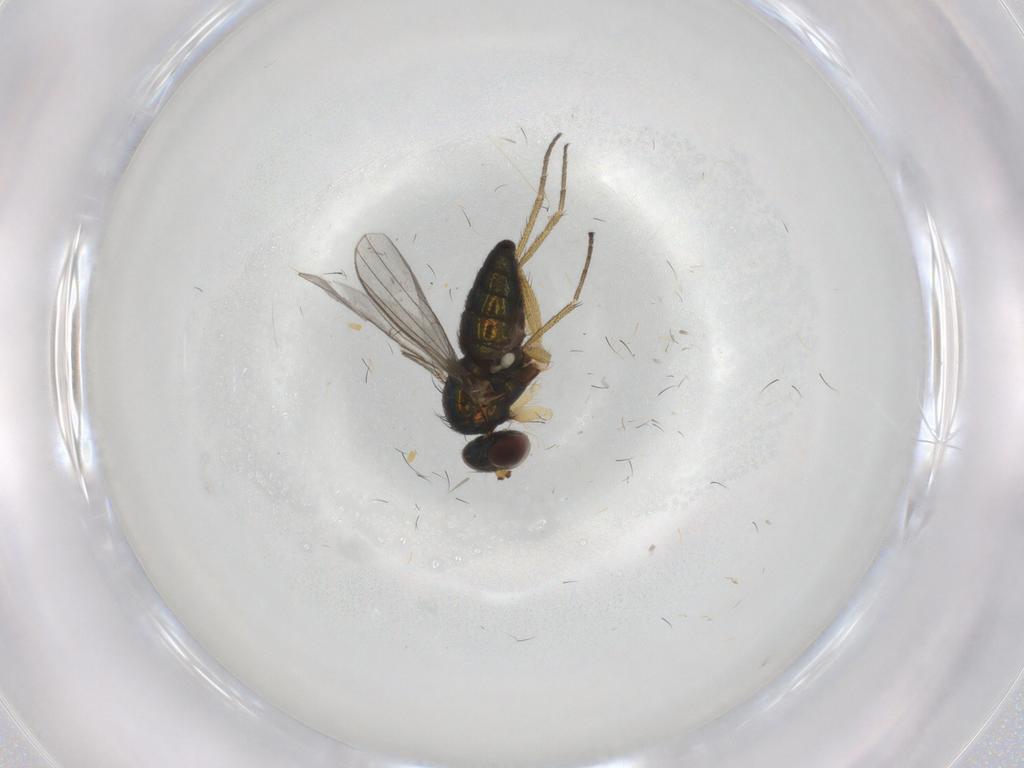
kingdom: Animalia
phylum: Arthropoda
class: Insecta
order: Diptera
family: Dolichopodidae
